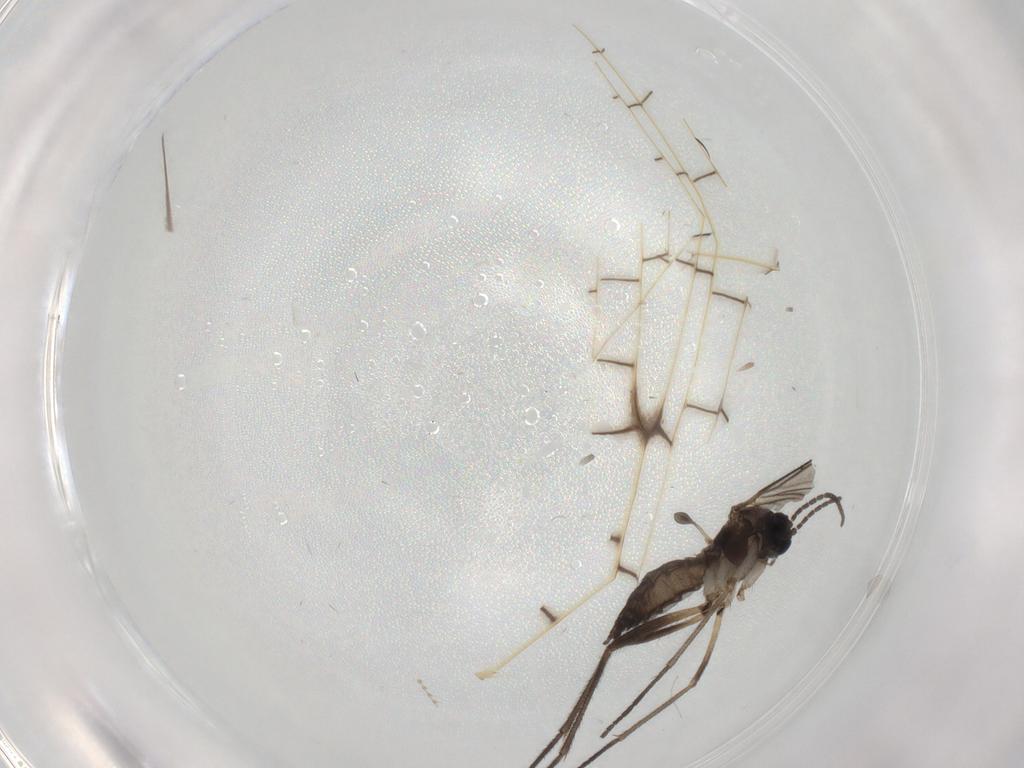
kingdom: Animalia
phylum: Arthropoda
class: Insecta
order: Diptera
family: Sciaridae
